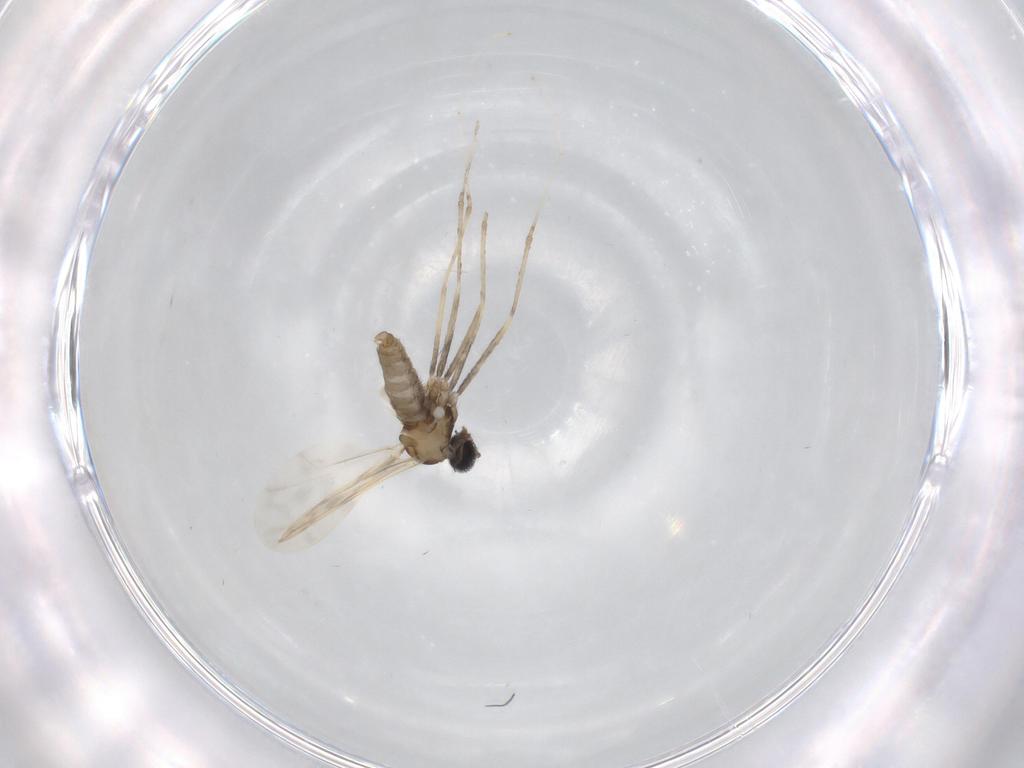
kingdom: Animalia
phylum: Arthropoda
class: Insecta
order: Diptera
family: Cecidomyiidae
